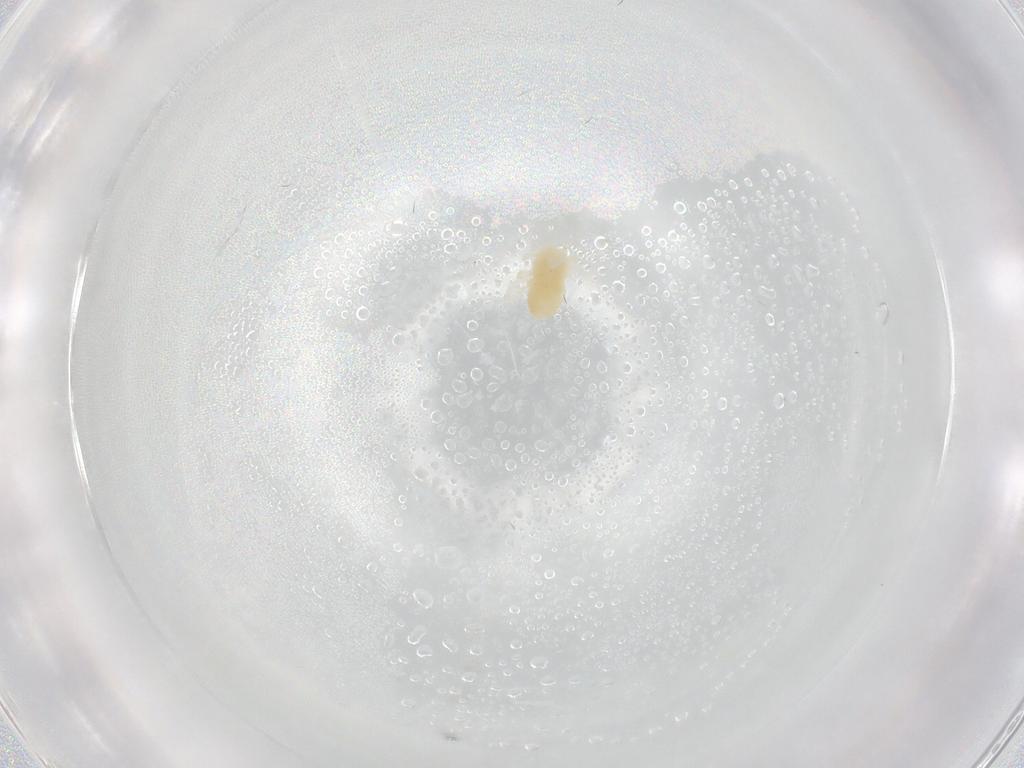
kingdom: Animalia
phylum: Arthropoda
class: Arachnida
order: Trombidiformes
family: Rhagidiidae
